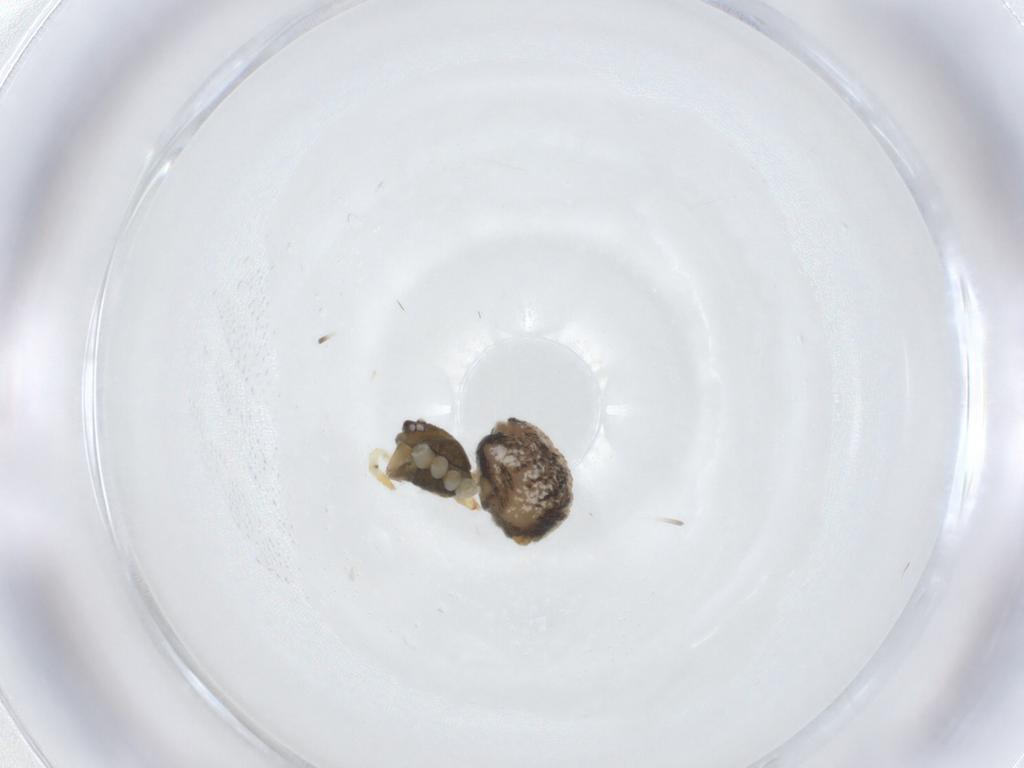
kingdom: Animalia
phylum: Arthropoda
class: Arachnida
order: Araneae
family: Theridiidae
